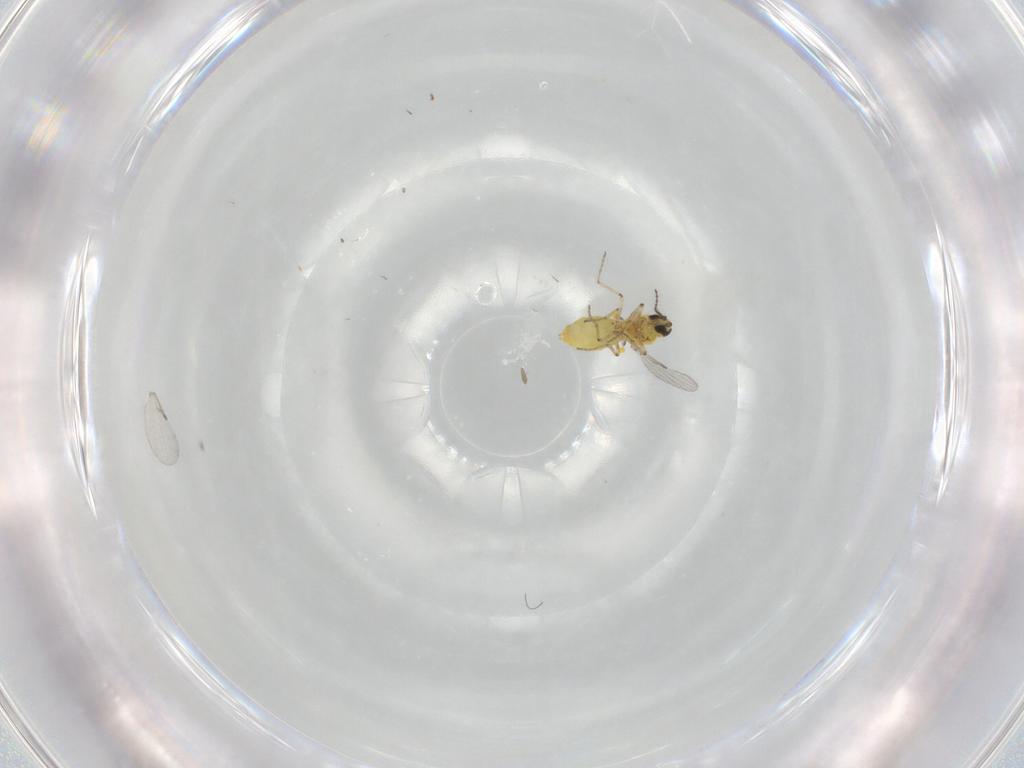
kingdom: Animalia
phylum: Arthropoda
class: Insecta
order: Diptera
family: Ceratopogonidae
